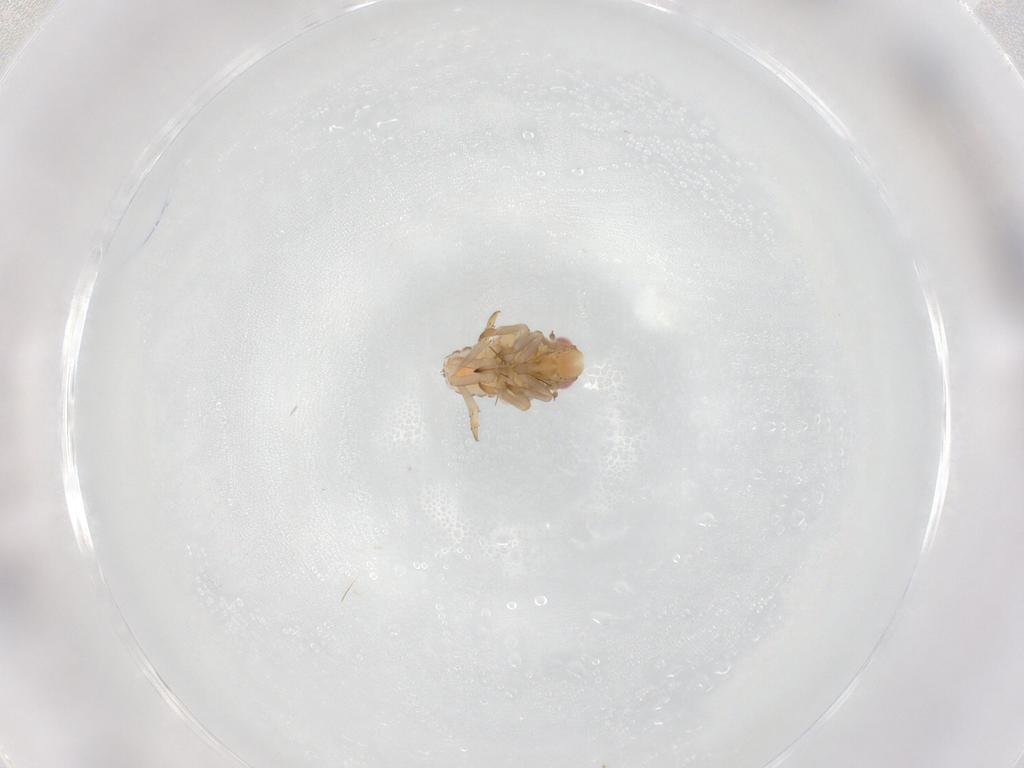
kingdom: Animalia
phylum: Arthropoda
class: Insecta
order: Hemiptera
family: Tropiduchidae
